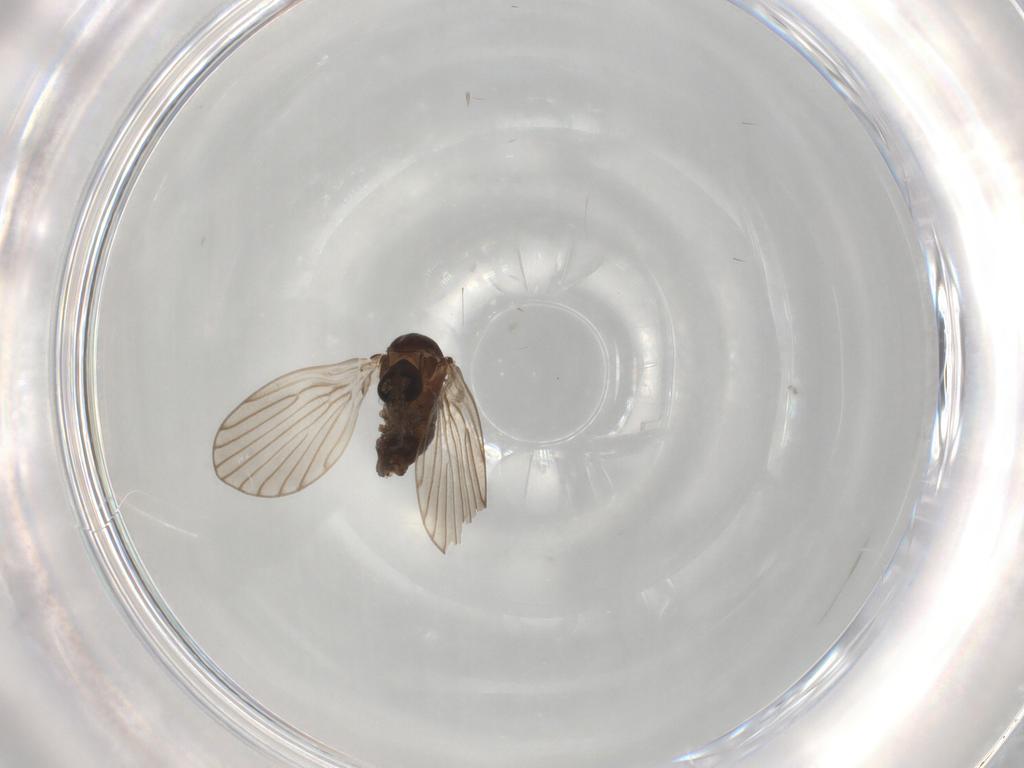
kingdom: Animalia
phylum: Arthropoda
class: Insecta
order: Diptera
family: Psychodidae
